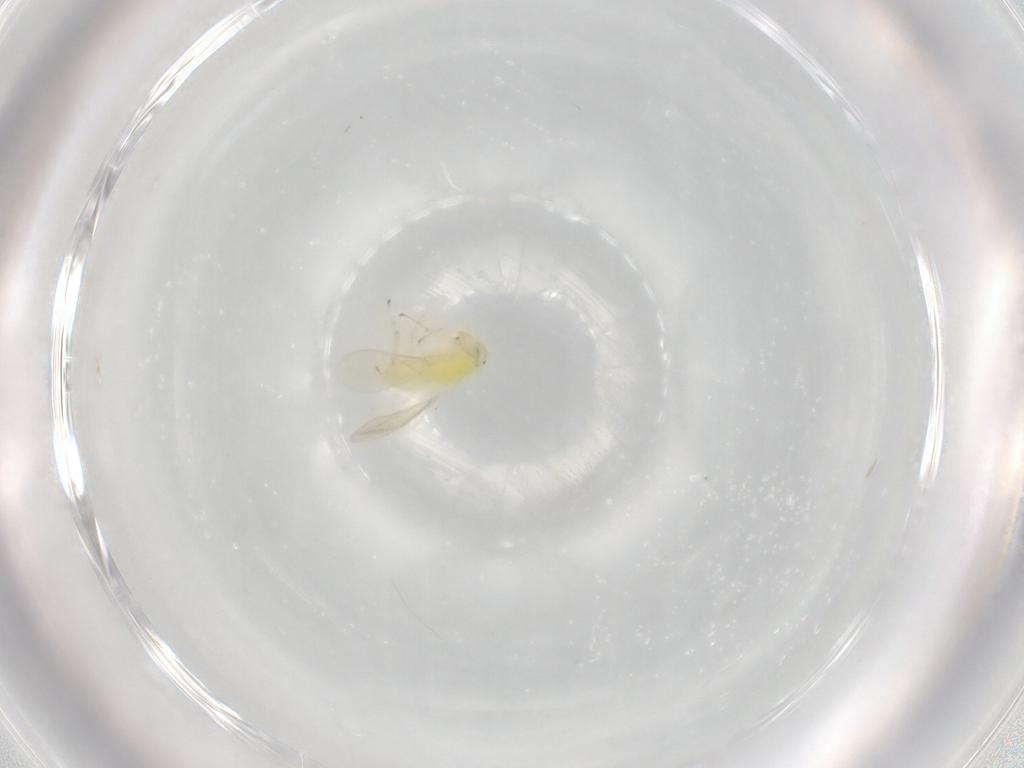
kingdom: Animalia
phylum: Arthropoda
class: Insecta
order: Hymenoptera
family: Aphelinidae
